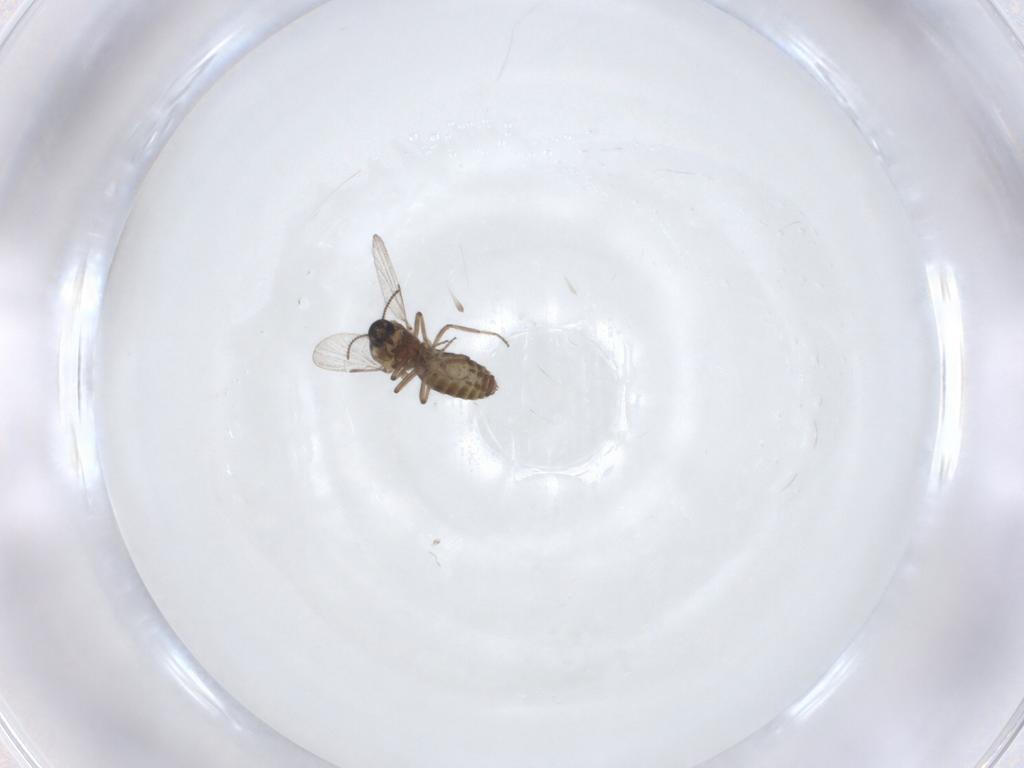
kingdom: Animalia
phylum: Arthropoda
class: Insecta
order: Diptera
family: Ceratopogonidae
